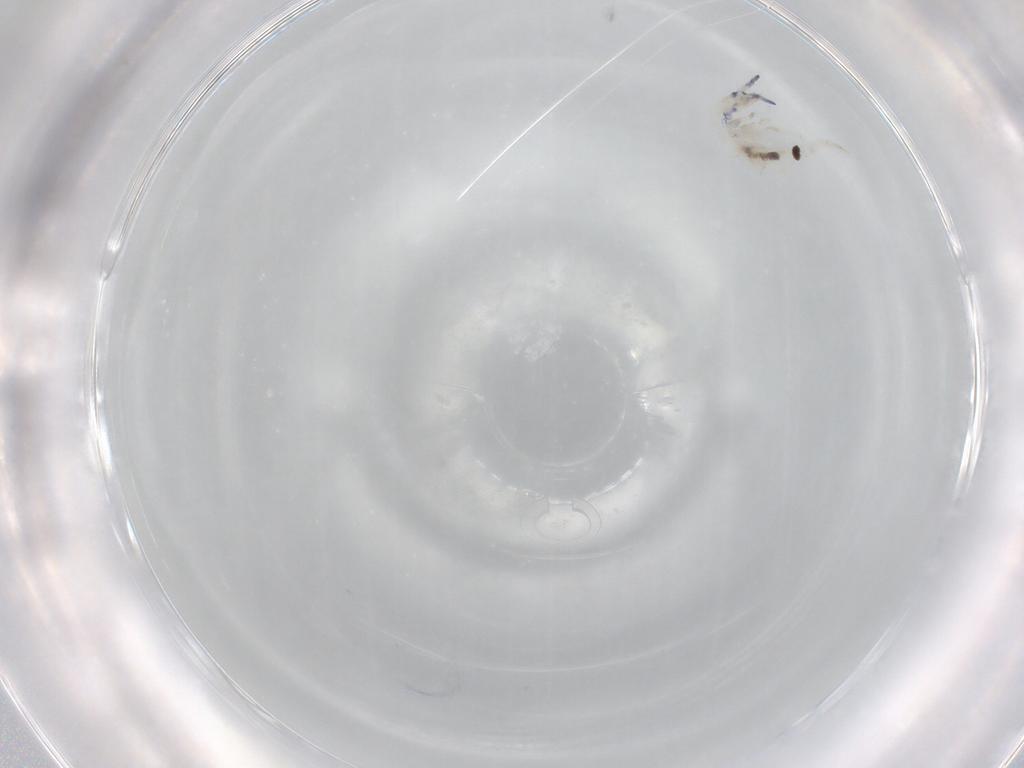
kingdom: Animalia
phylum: Arthropoda
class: Collembola
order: Entomobryomorpha
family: Entomobryidae
